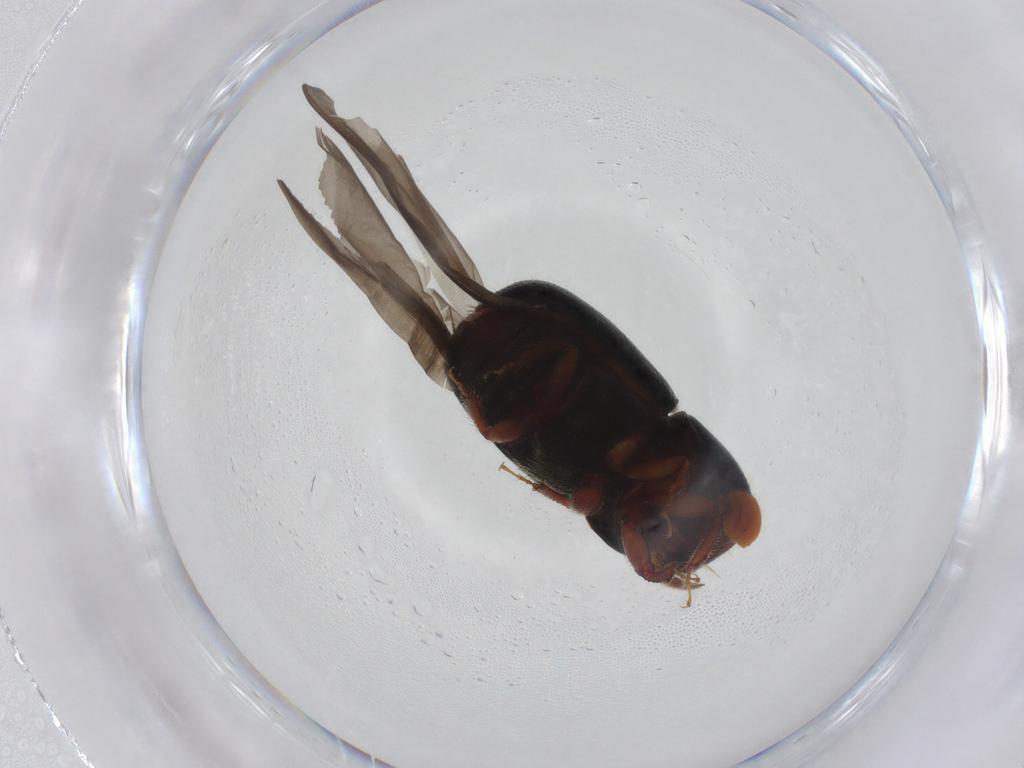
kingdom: Animalia
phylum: Arthropoda
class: Insecta
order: Coleoptera
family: Curculionidae
